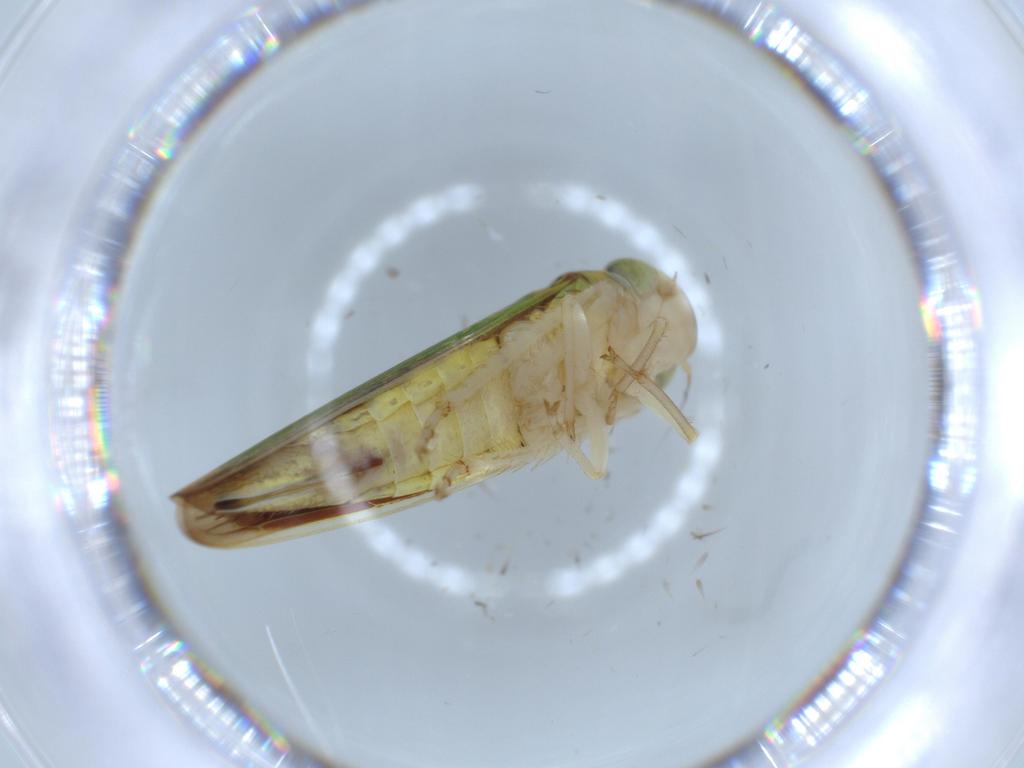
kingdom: Animalia
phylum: Arthropoda
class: Insecta
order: Hemiptera
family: Cicadellidae
